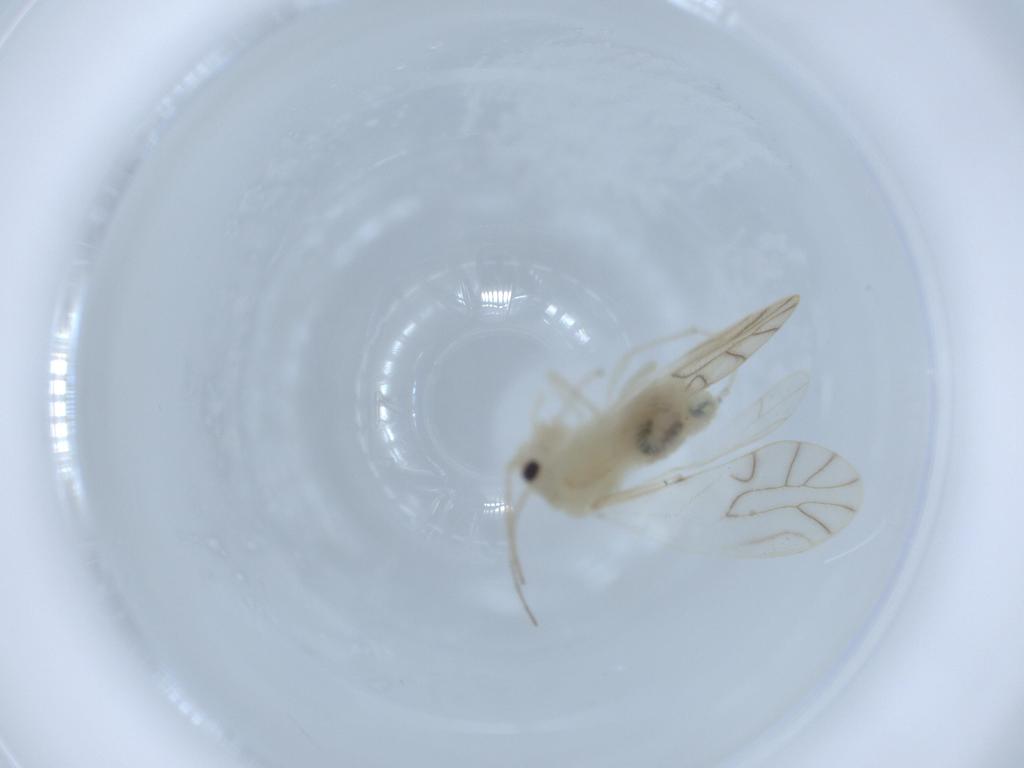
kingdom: Animalia
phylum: Arthropoda
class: Insecta
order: Psocodea
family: Caeciliusidae
